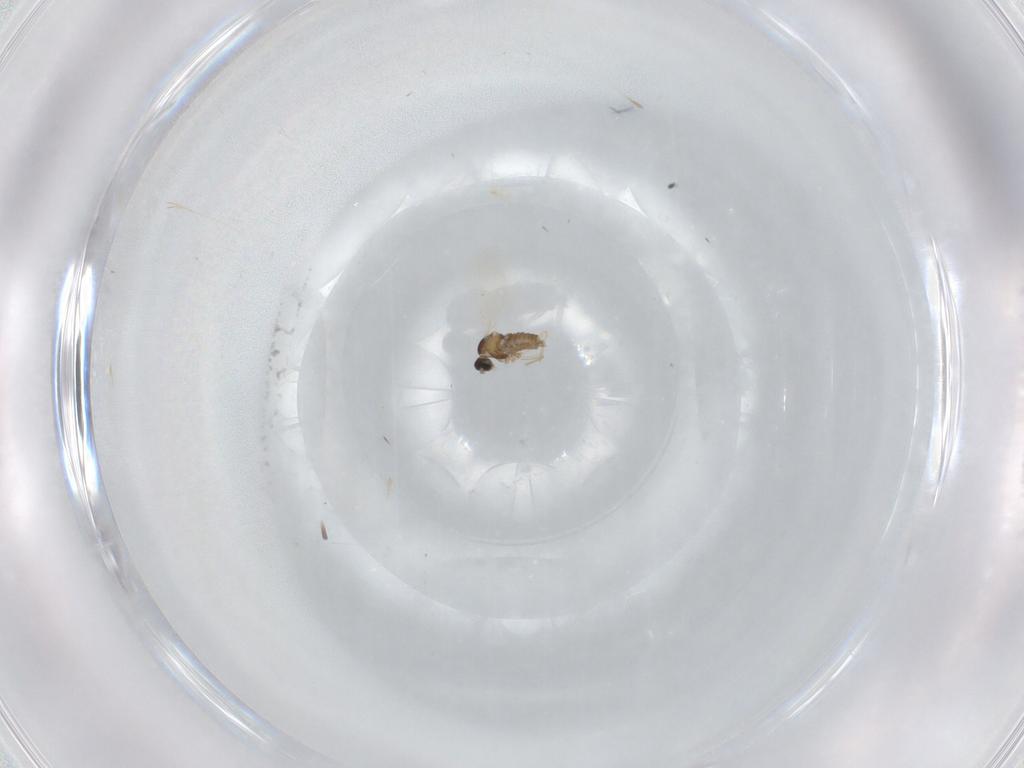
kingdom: Animalia
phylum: Arthropoda
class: Insecta
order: Diptera
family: Cecidomyiidae
